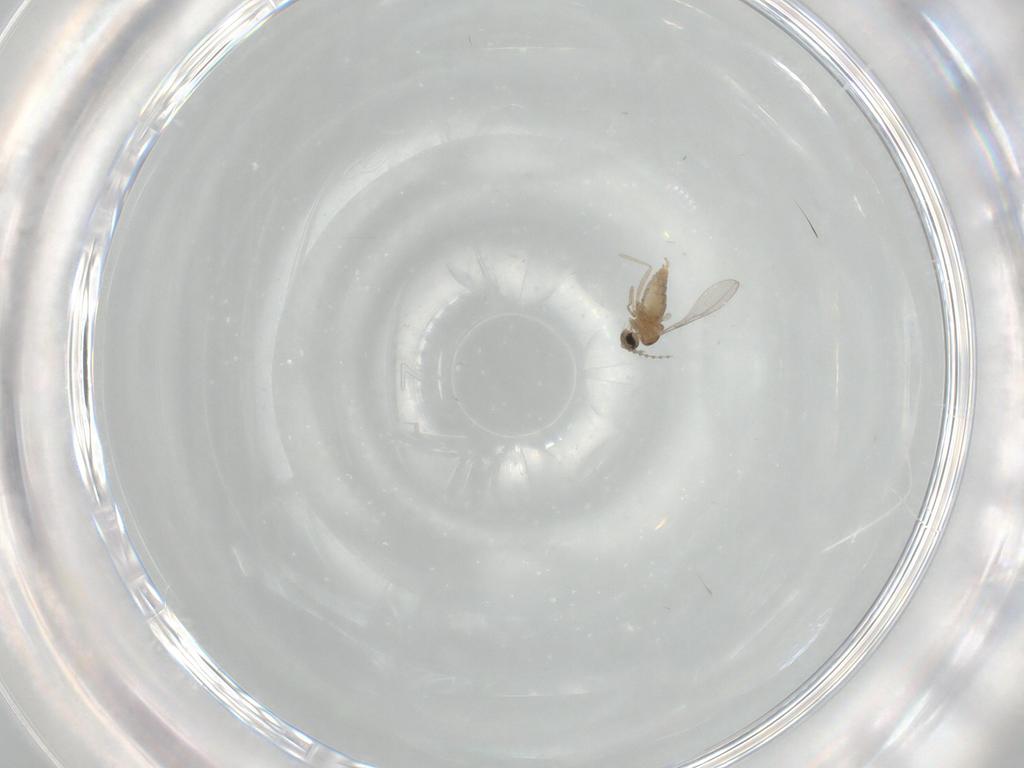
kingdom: Animalia
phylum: Arthropoda
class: Insecta
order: Diptera
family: Cecidomyiidae
